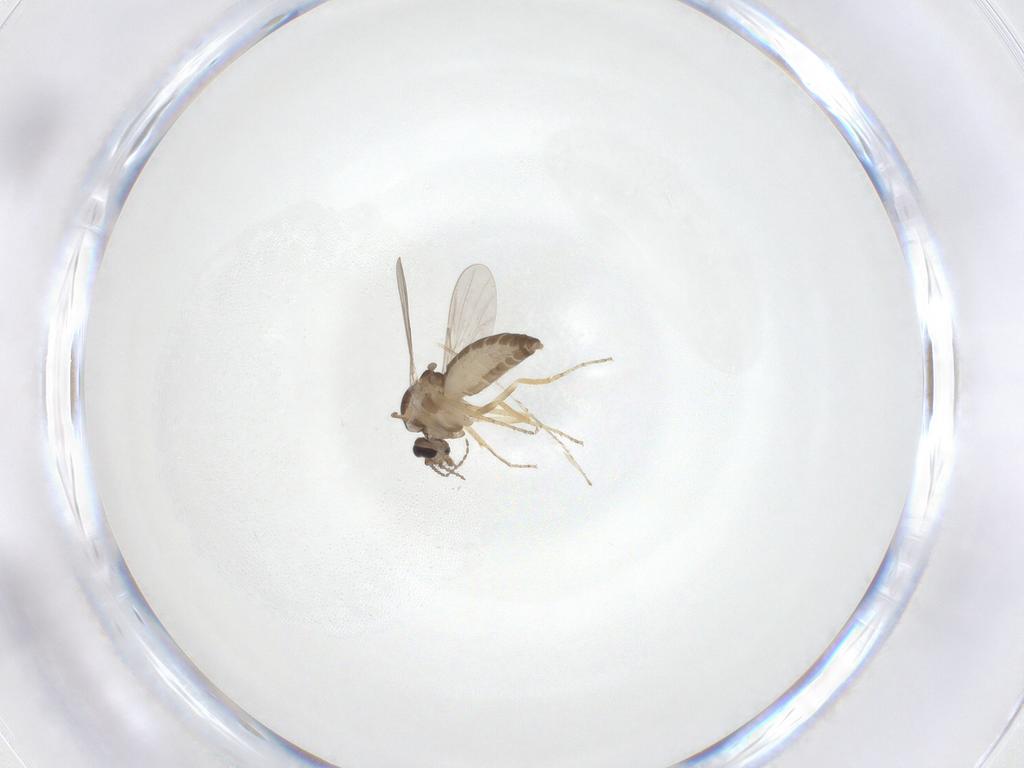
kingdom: Animalia
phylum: Arthropoda
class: Insecta
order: Diptera
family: Ceratopogonidae
